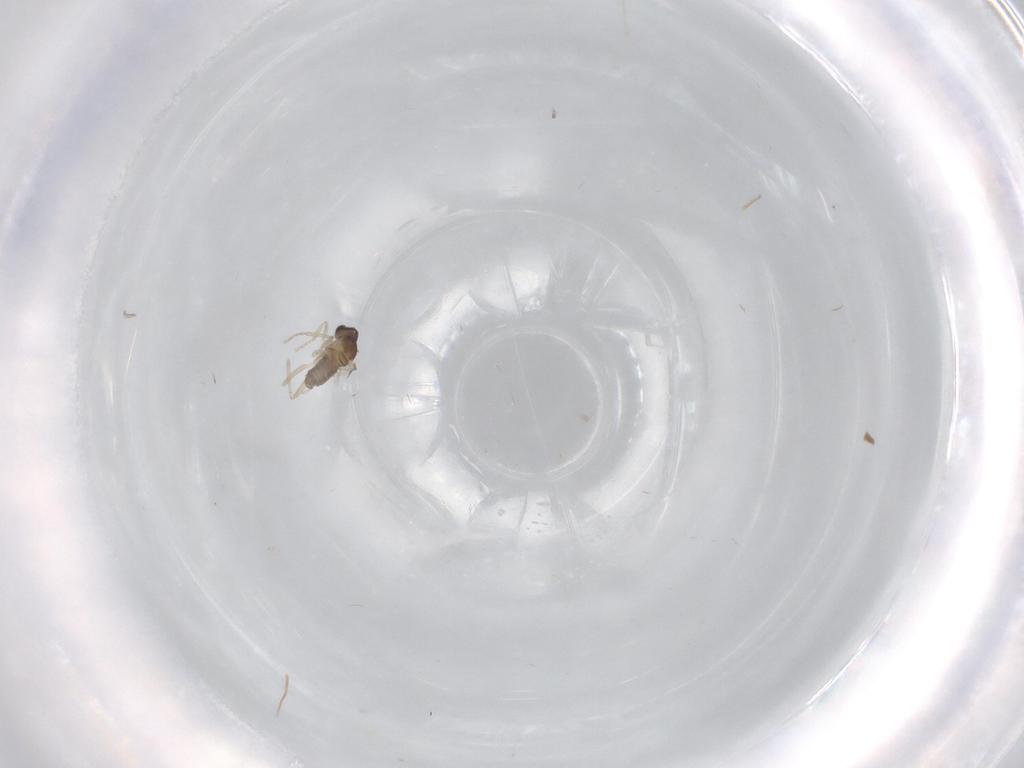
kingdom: Animalia
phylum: Arthropoda
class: Insecta
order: Diptera
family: Cecidomyiidae
